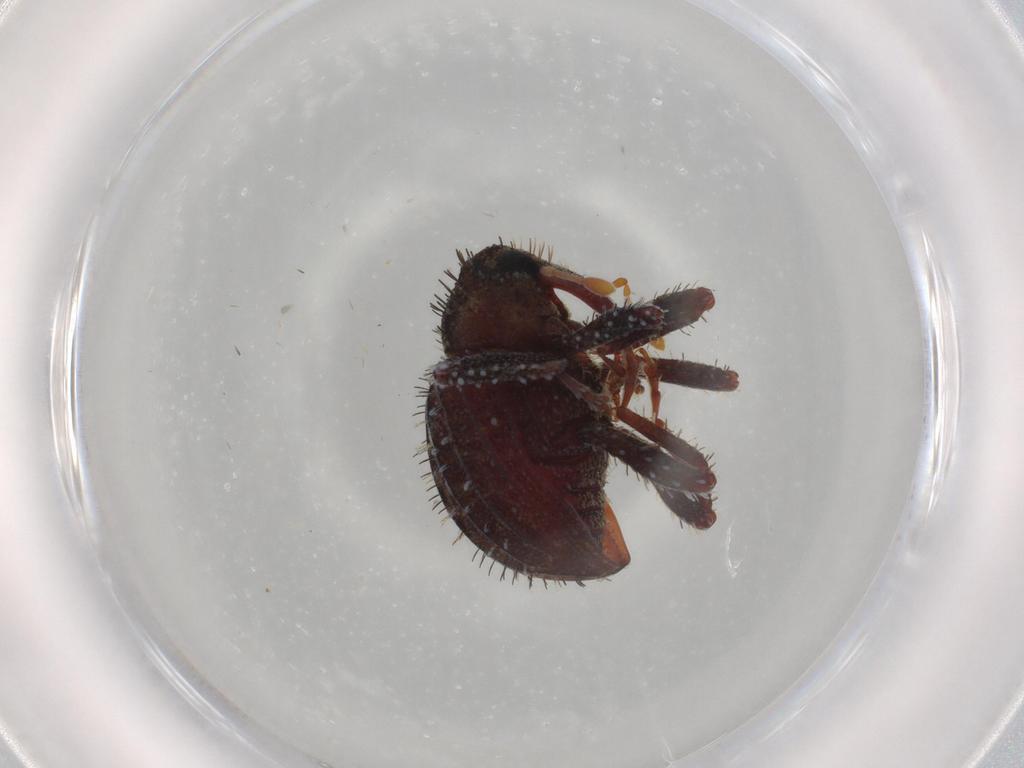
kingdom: Animalia
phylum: Arthropoda
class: Insecta
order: Coleoptera
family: Curculionidae
